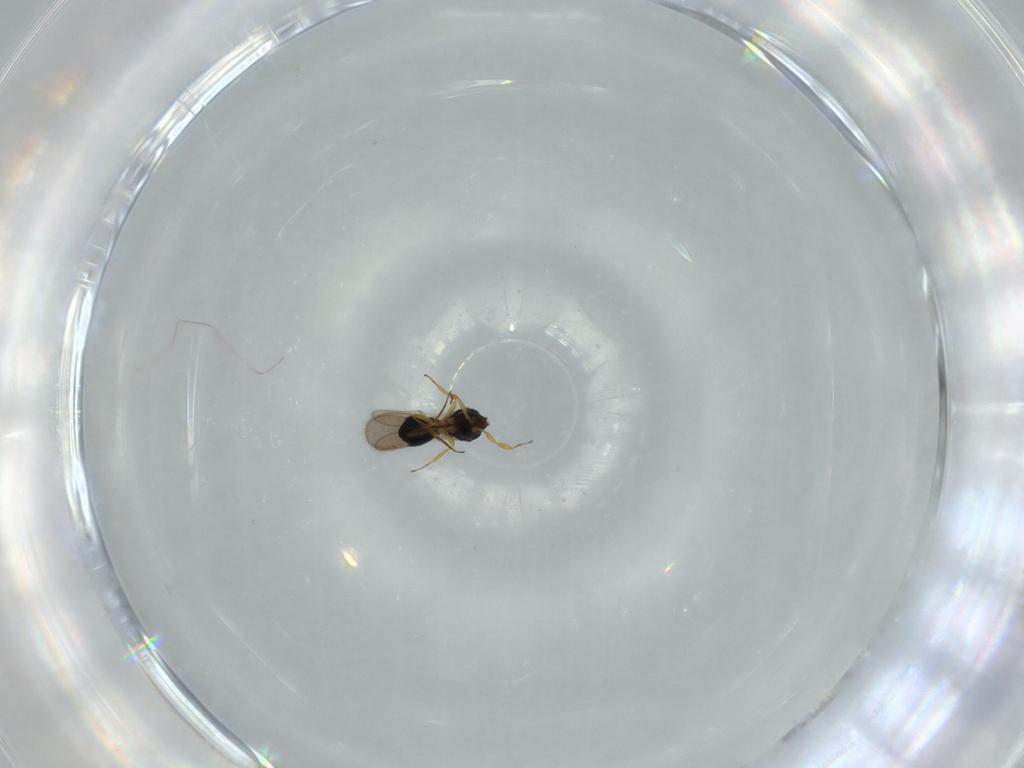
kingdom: Animalia
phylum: Arthropoda
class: Insecta
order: Hymenoptera
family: Scelionidae
